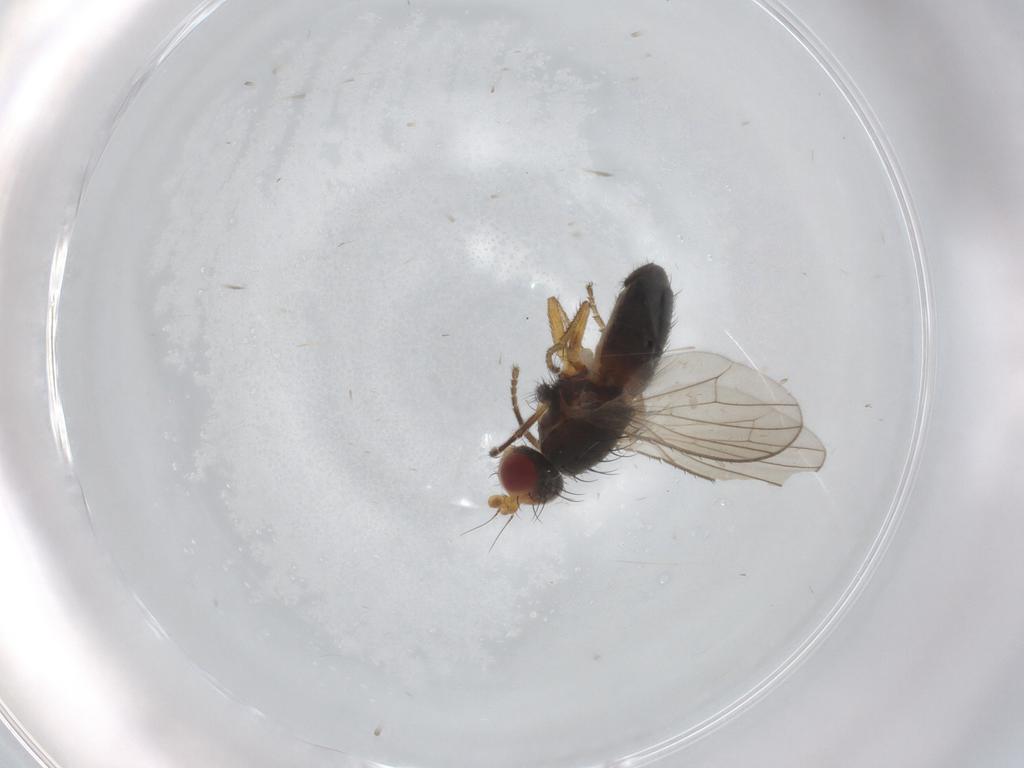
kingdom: Animalia
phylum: Arthropoda
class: Insecta
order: Diptera
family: Heleomyzidae
